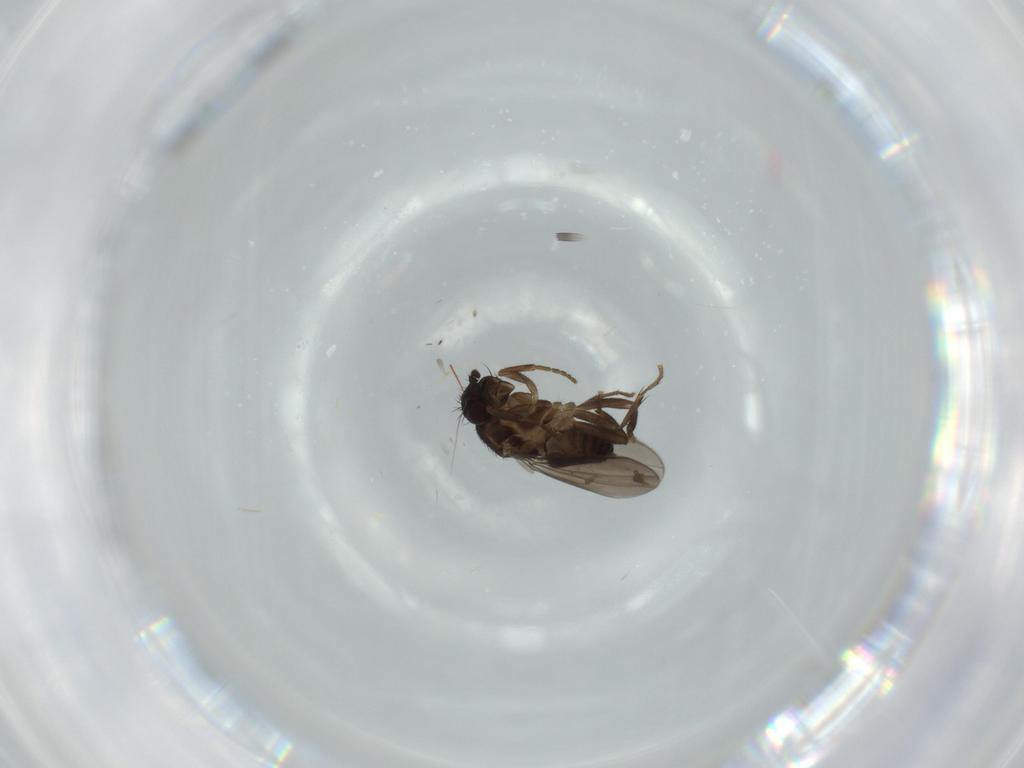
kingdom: Animalia
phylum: Arthropoda
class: Insecta
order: Diptera
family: Sphaeroceridae
